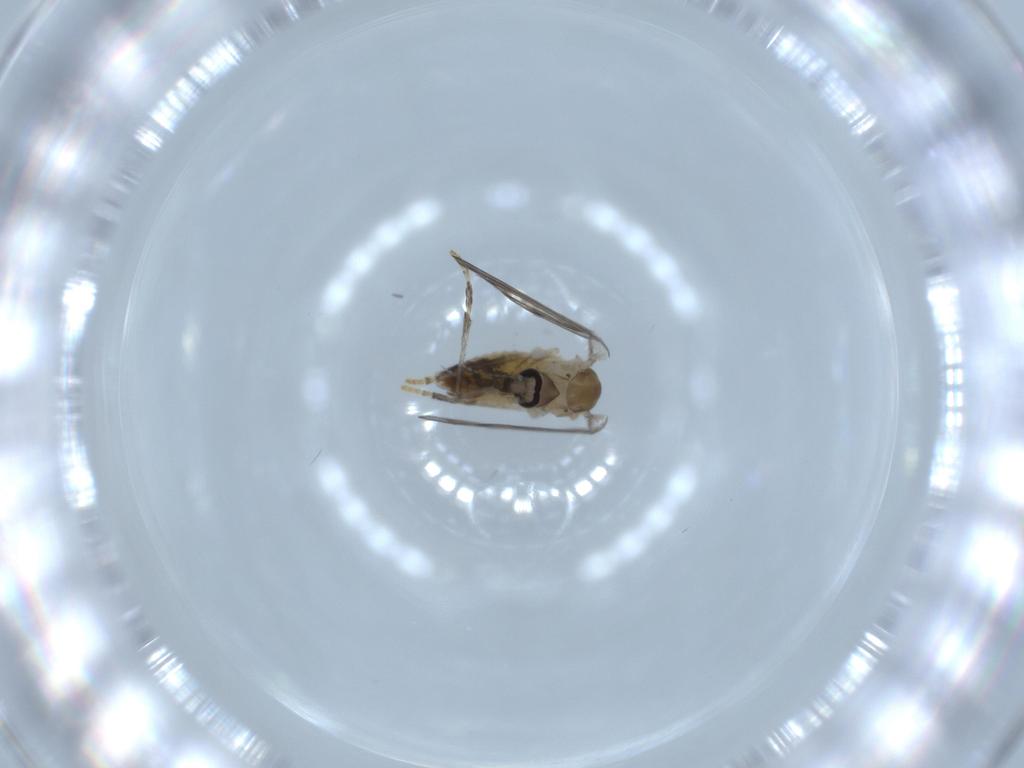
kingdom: Animalia
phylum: Arthropoda
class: Insecta
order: Diptera
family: Psychodidae
